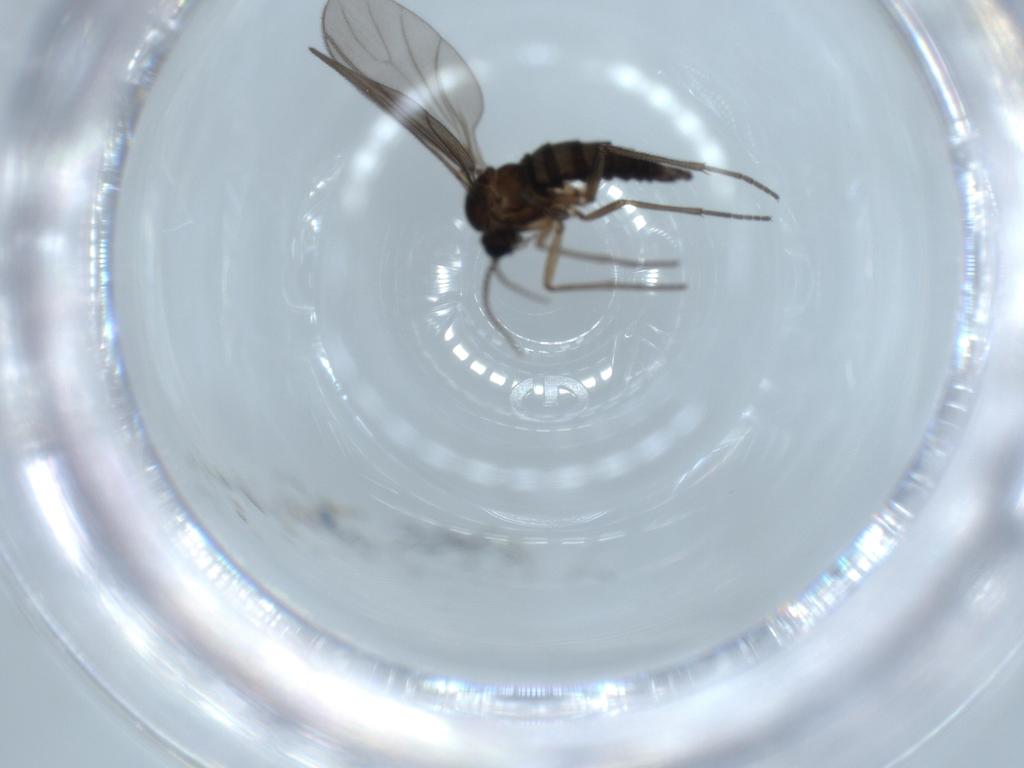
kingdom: Animalia
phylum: Arthropoda
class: Insecta
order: Diptera
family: Sciaridae
